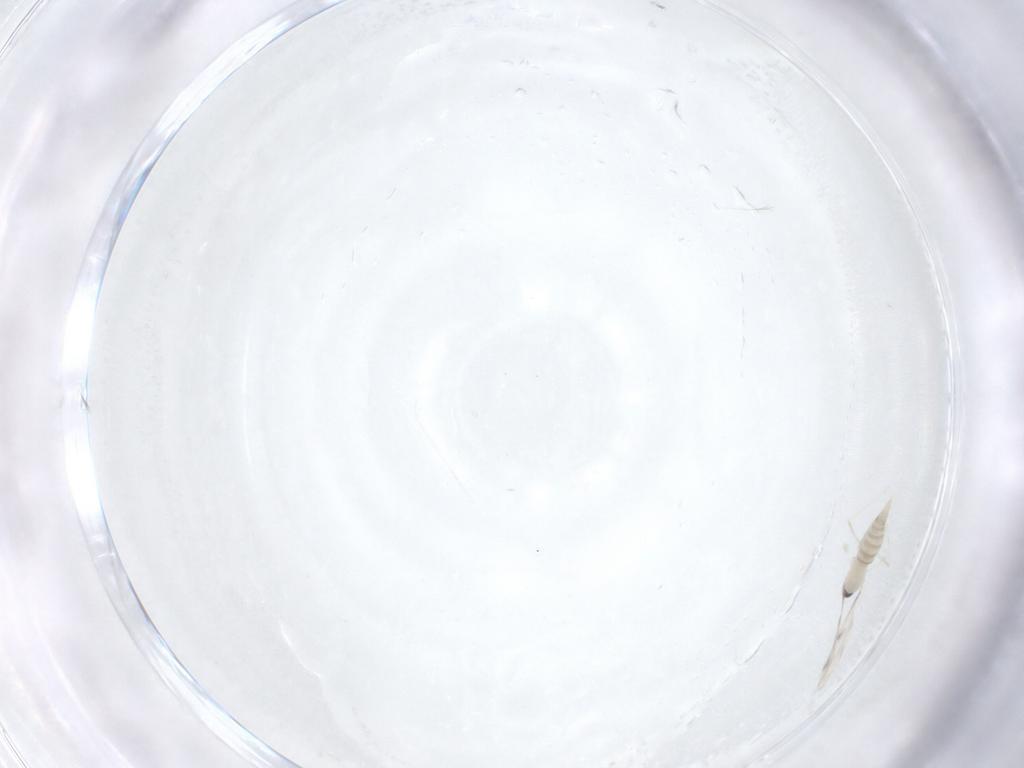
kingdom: Animalia
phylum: Arthropoda
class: Insecta
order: Diptera
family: Cecidomyiidae
